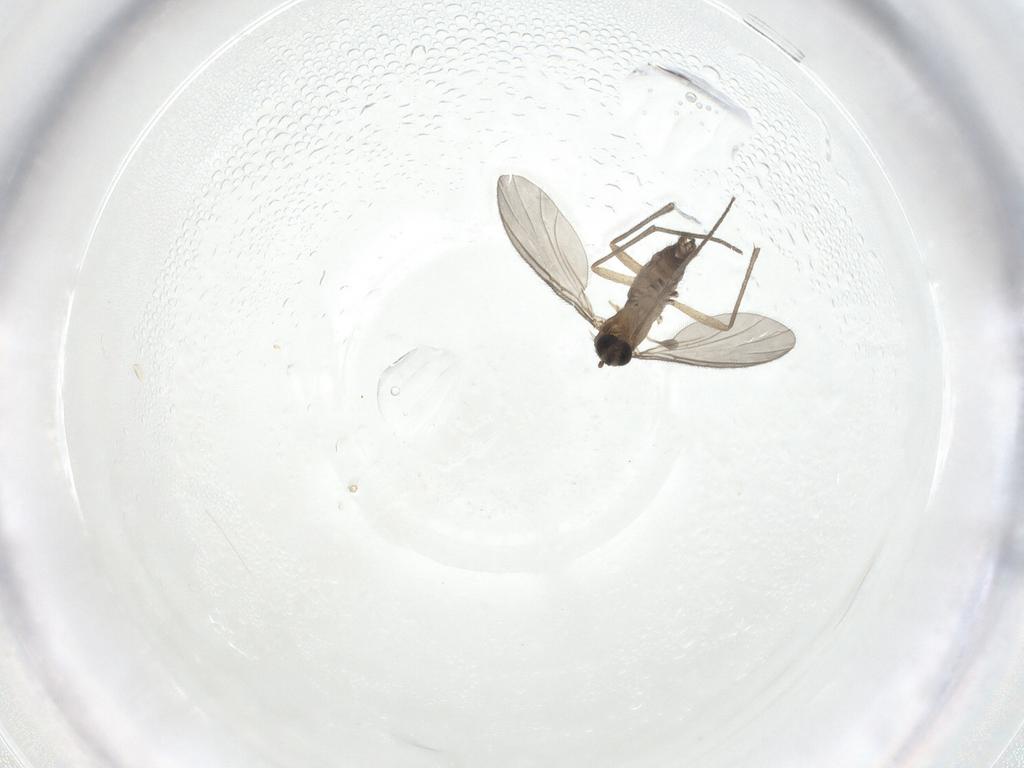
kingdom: Animalia
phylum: Arthropoda
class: Insecta
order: Diptera
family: Sciaridae
